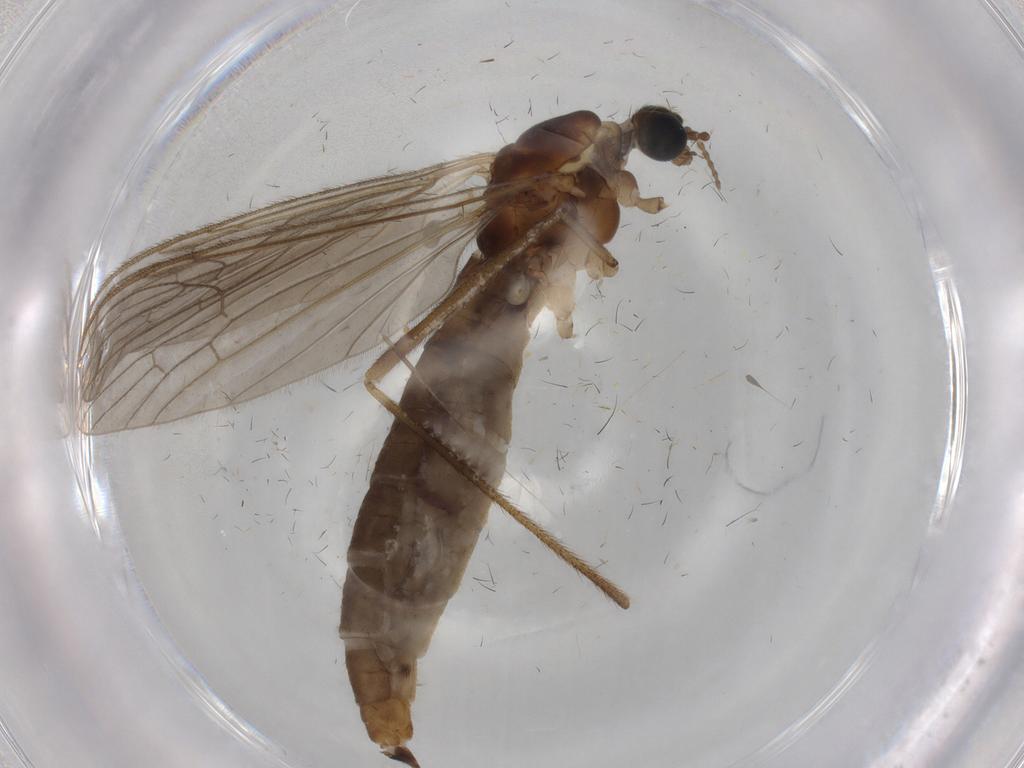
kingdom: Animalia
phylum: Arthropoda
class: Insecta
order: Diptera
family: Limoniidae
